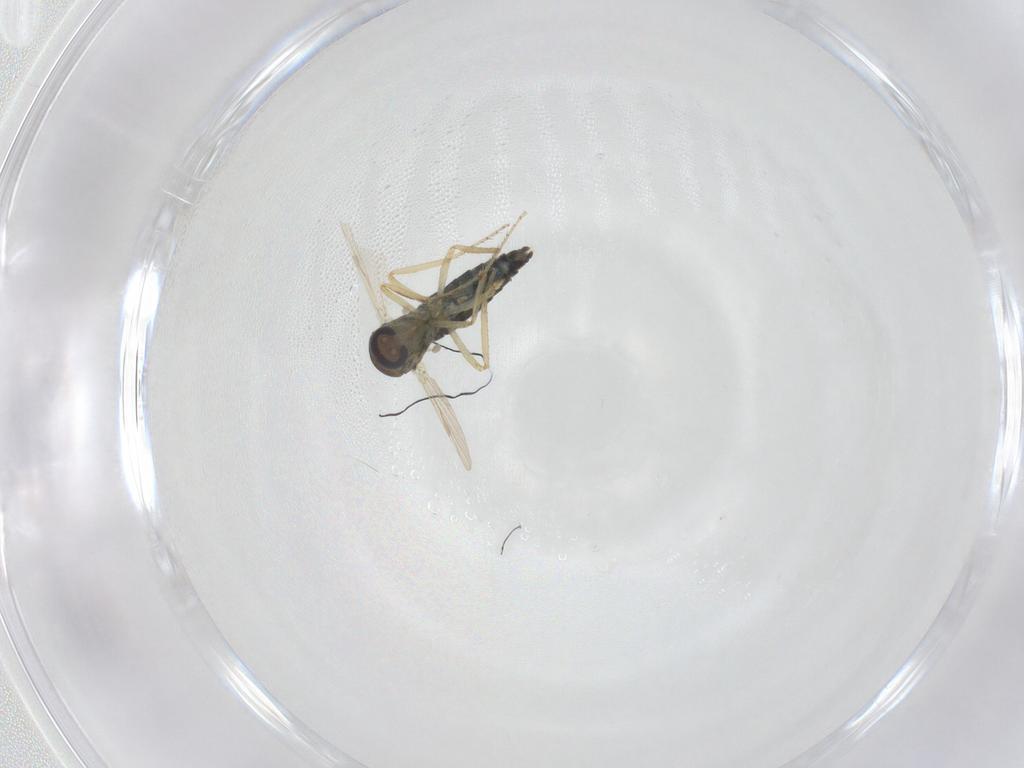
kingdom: Animalia
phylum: Arthropoda
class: Insecta
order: Diptera
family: Ceratopogonidae
